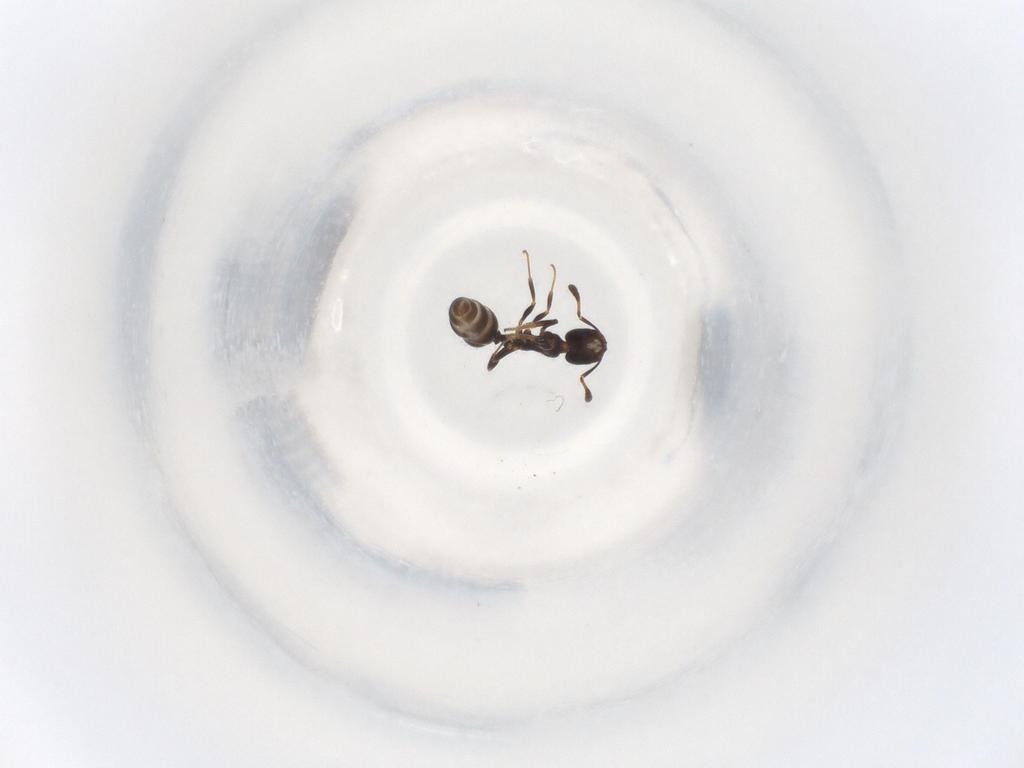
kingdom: Animalia
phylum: Arthropoda
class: Insecta
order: Hymenoptera
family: Formicidae
